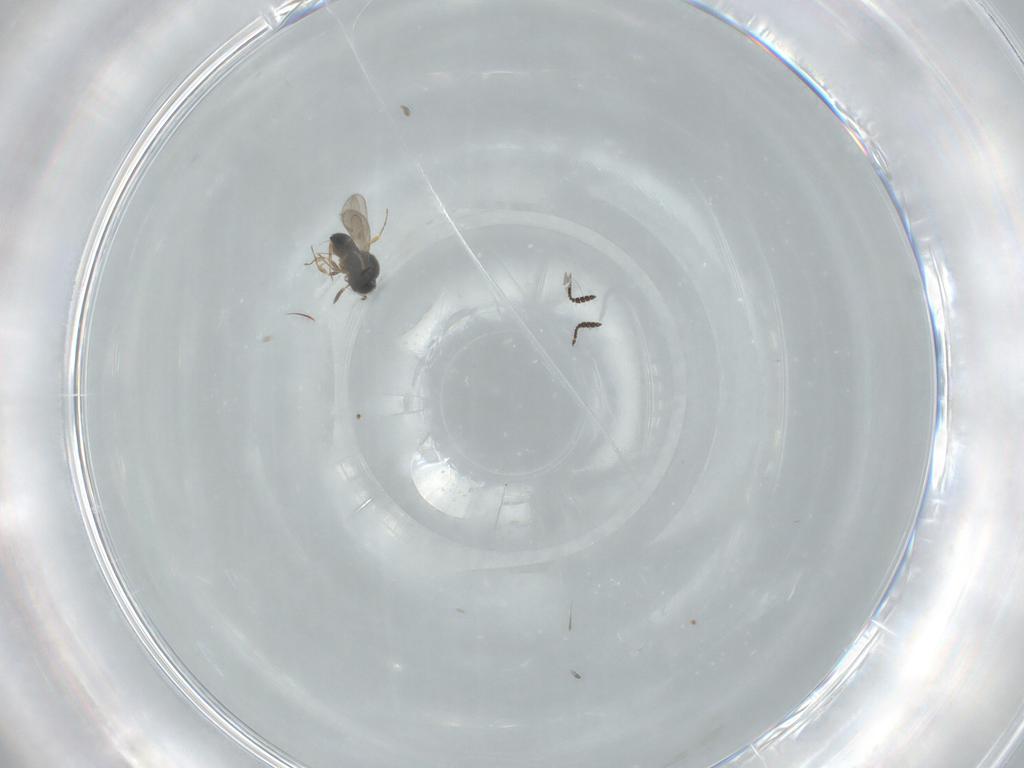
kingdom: Animalia
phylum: Arthropoda
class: Insecta
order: Hymenoptera
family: Scelionidae
